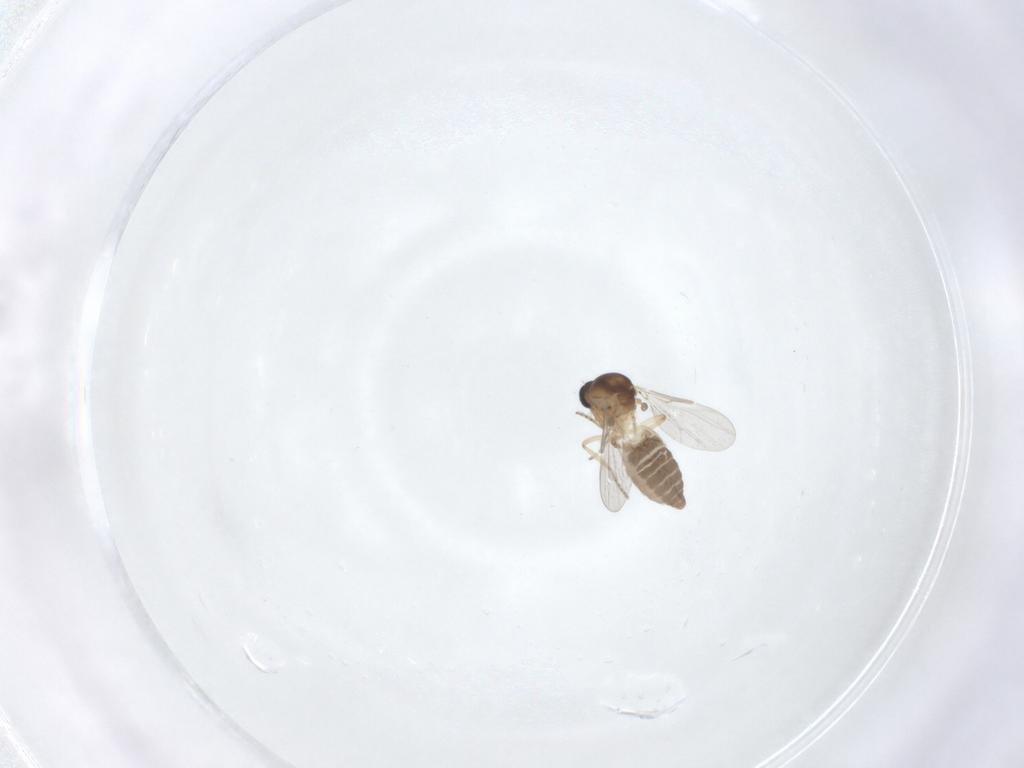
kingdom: Animalia
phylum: Arthropoda
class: Insecta
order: Diptera
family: Ceratopogonidae
